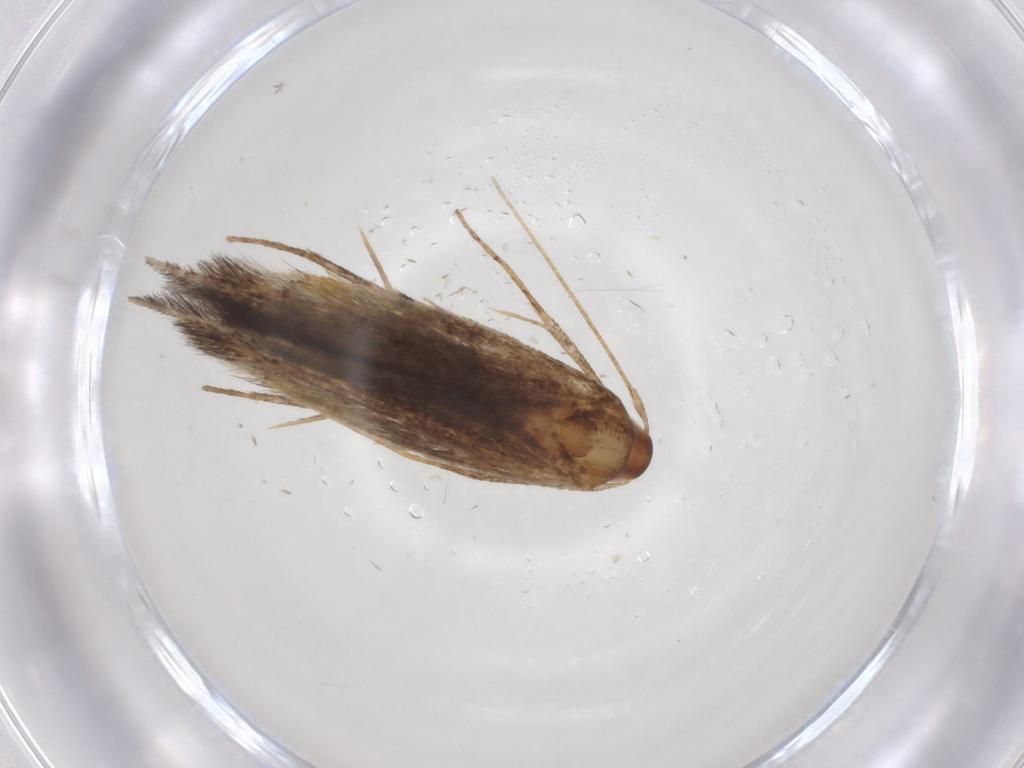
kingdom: Animalia
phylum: Arthropoda
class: Insecta
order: Lepidoptera
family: Cosmopterigidae
